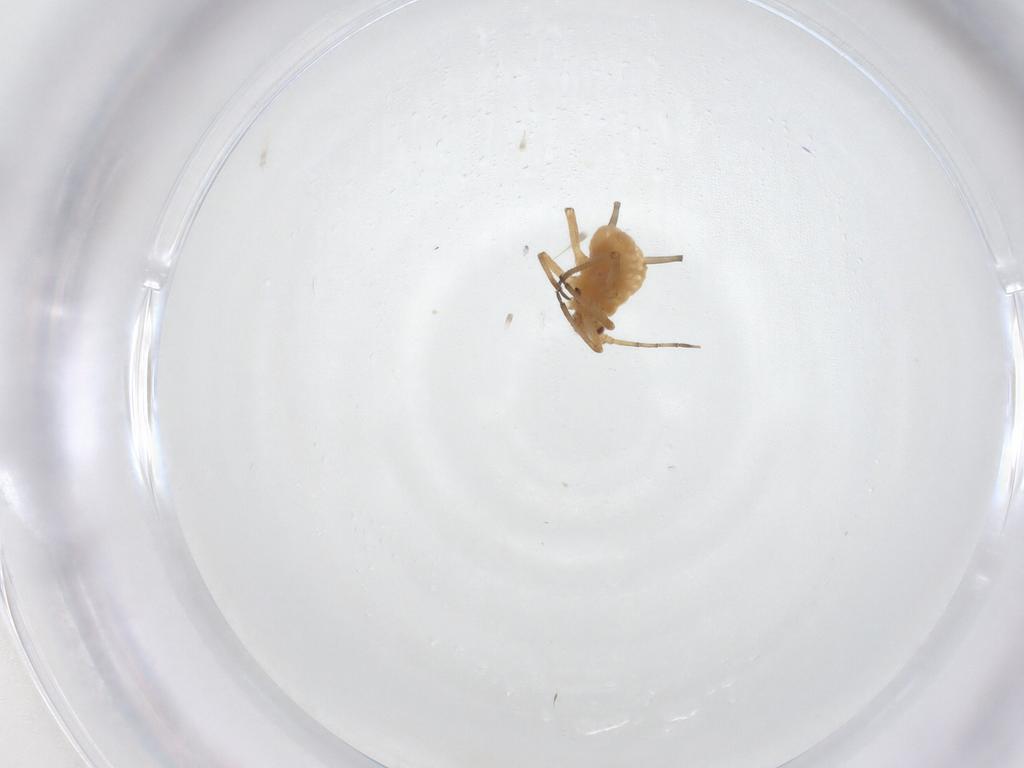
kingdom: Animalia
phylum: Arthropoda
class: Insecta
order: Hemiptera
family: Aphididae
